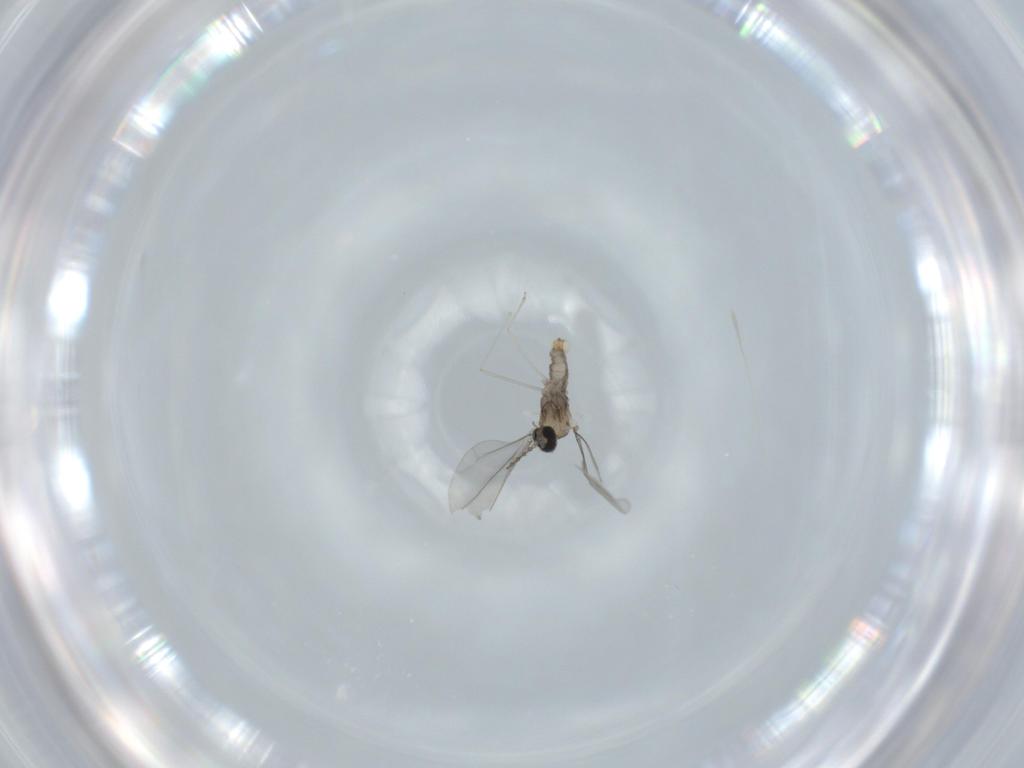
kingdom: Animalia
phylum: Arthropoda
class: Insecta
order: Diptera
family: Cecidomyiidae
